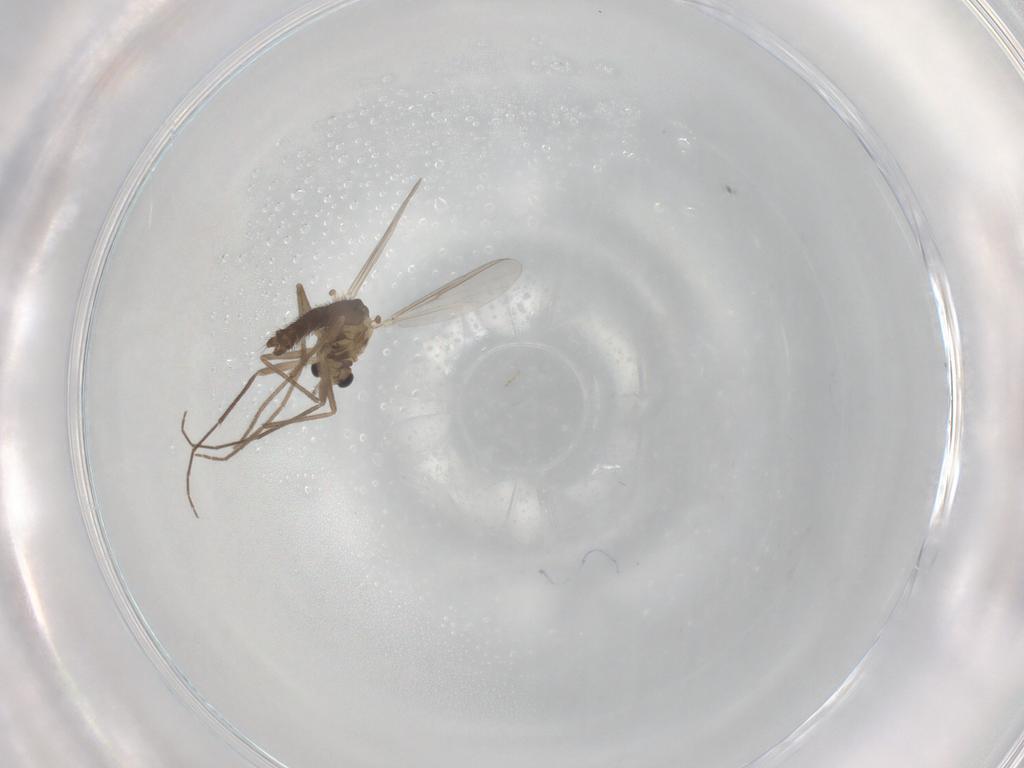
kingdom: Animalia
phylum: Arthropoda
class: Insecta
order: Diptera
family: Chironomidae
